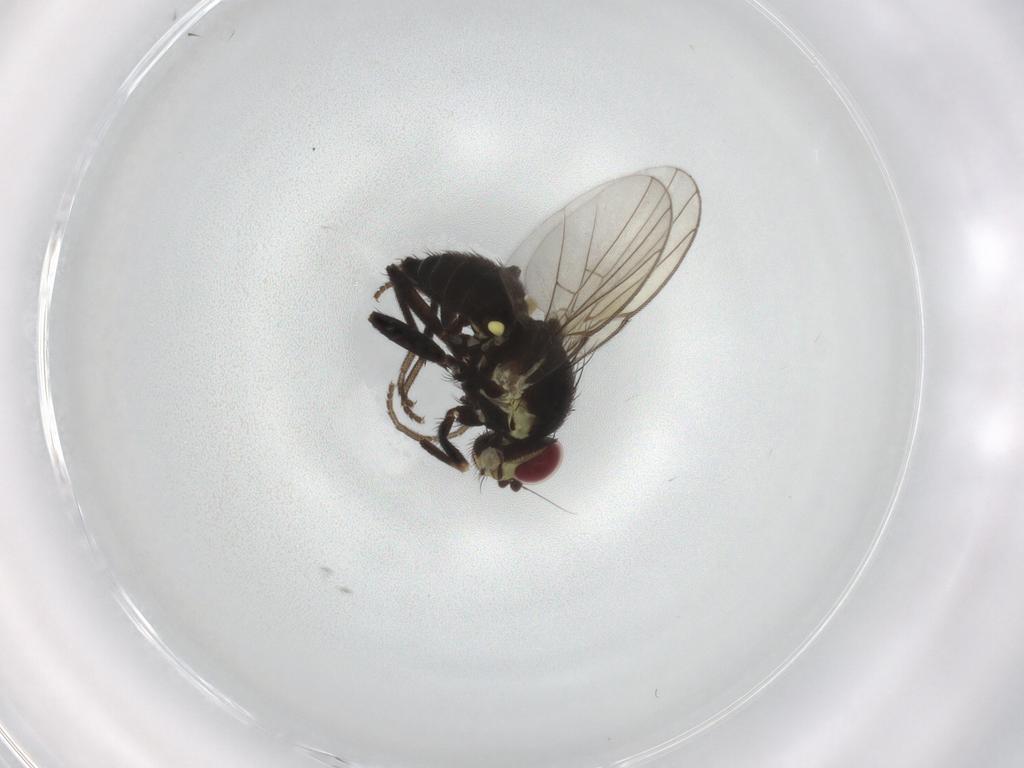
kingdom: Animalia
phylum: Arthropoda
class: Insecta
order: Diptera
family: Agromyzidae
